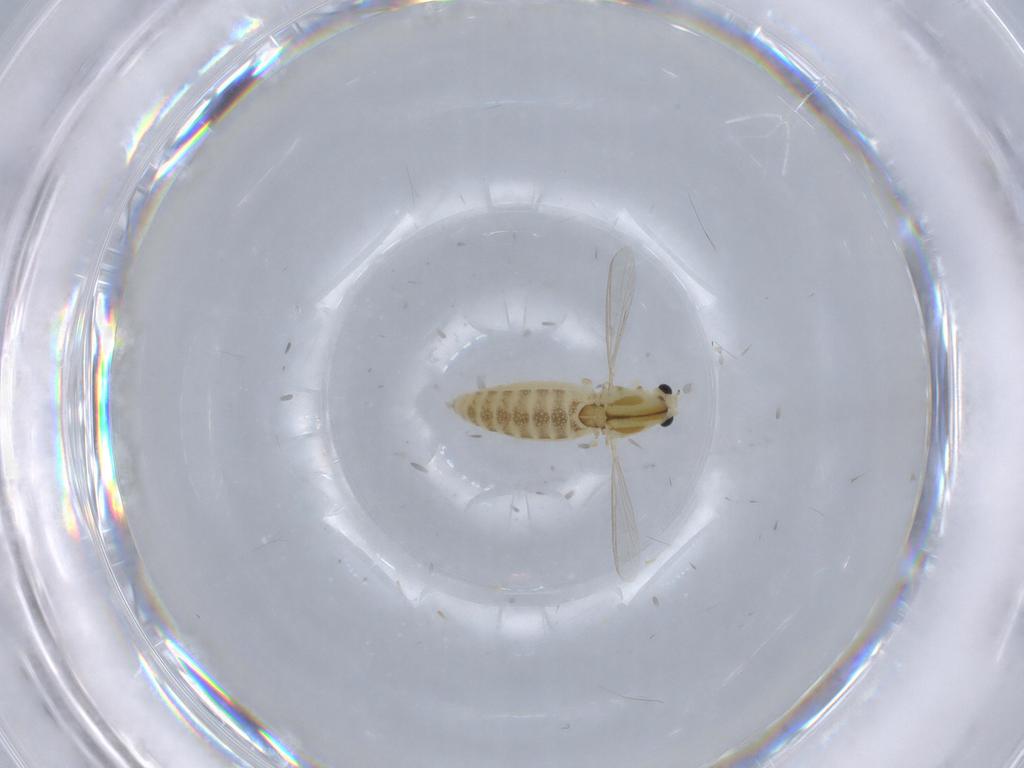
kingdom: Animalia
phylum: Arthropoda
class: Insecta
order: Diptera
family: Chironomidae
